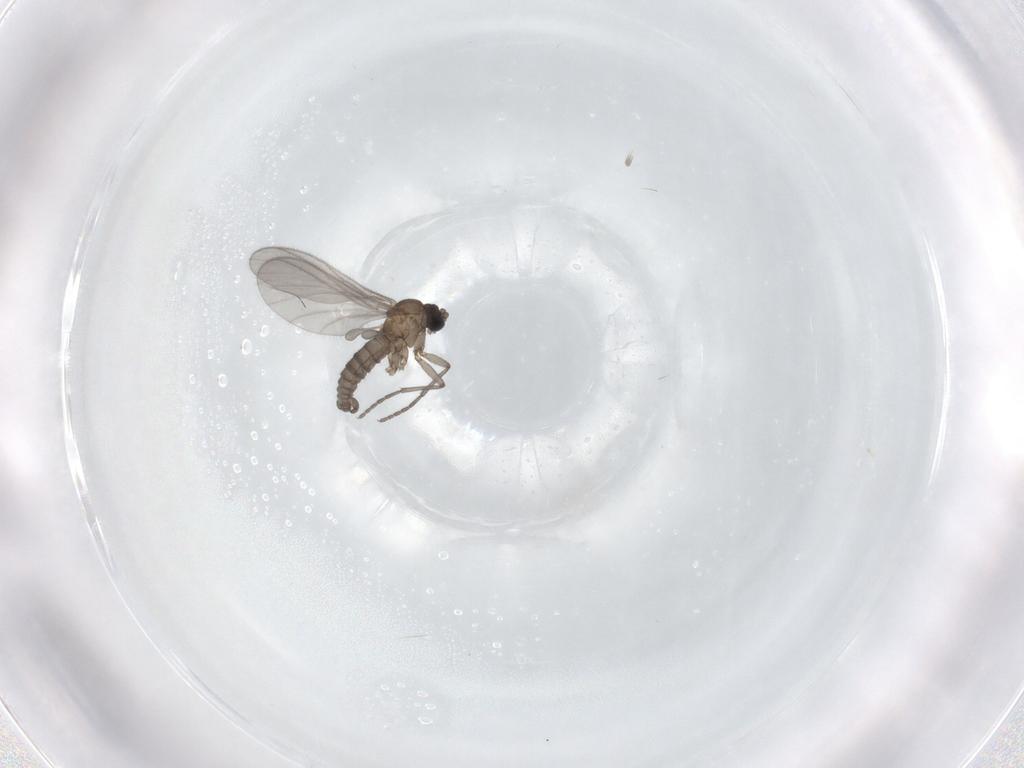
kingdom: Animalia
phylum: Arthropoda
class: Insecta
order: Diptera
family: Sciaridae
